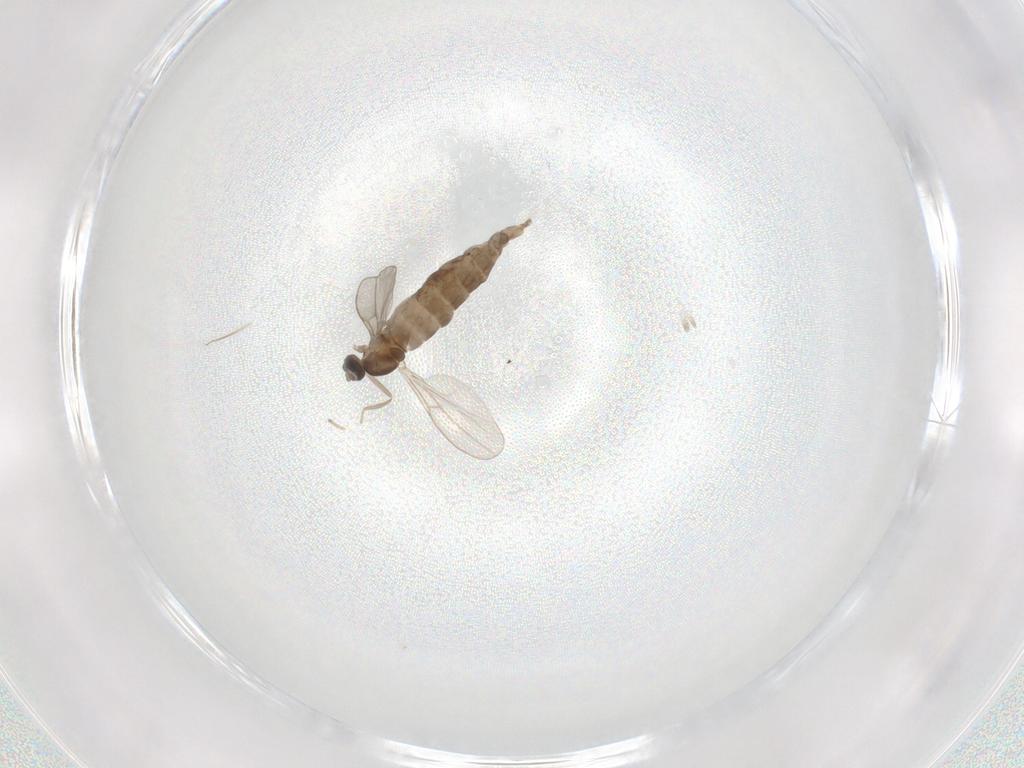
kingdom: Animalia
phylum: Arthropoda
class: Insecta
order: Diptera
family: Cecidomyiidae
